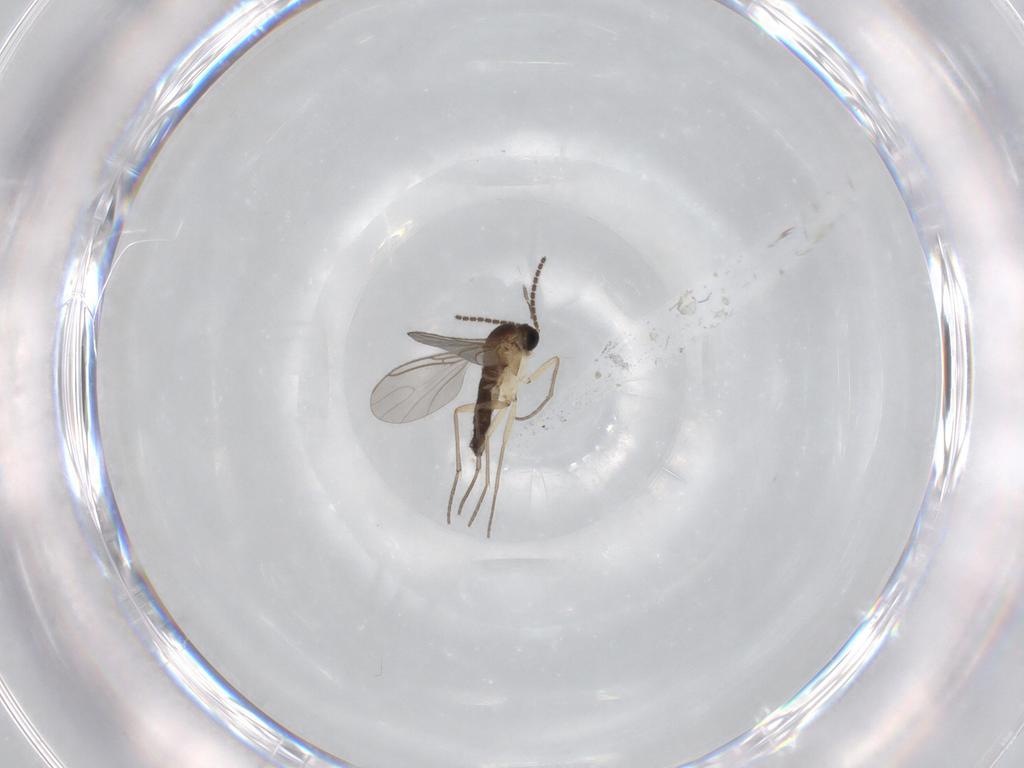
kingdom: Animalia
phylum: Arthropoda
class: Insecta
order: Diptera
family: Sciaridae
